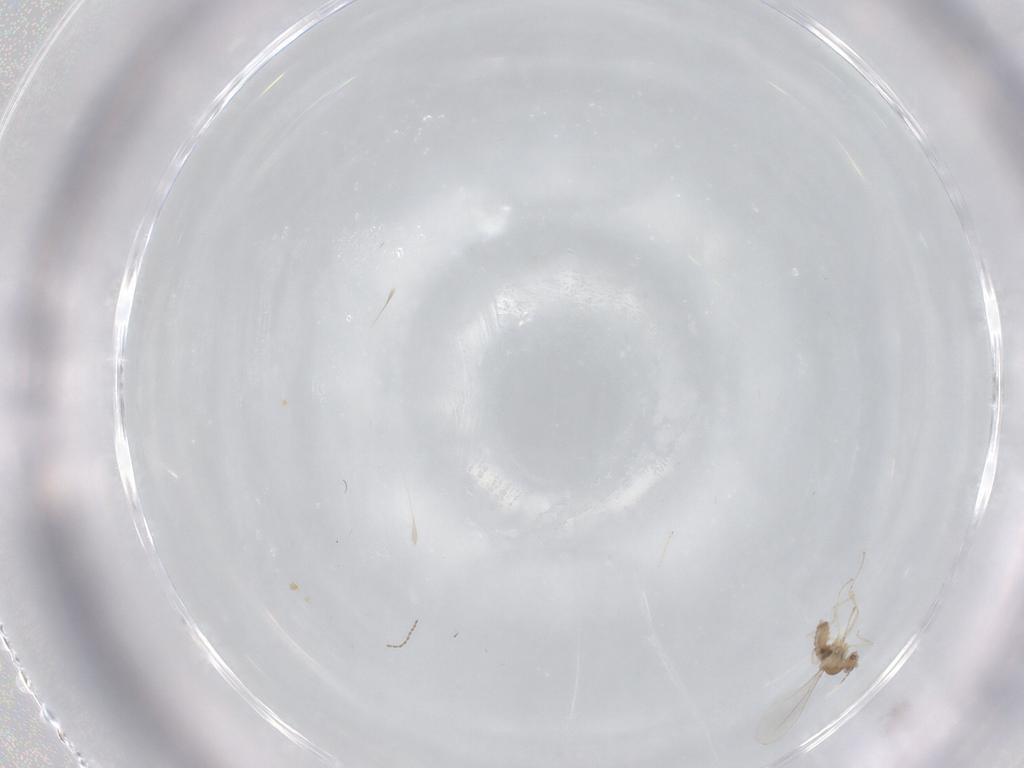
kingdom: Animalia
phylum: Arthropoda
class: Insecta
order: Diptera
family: Cecidomyiidae
